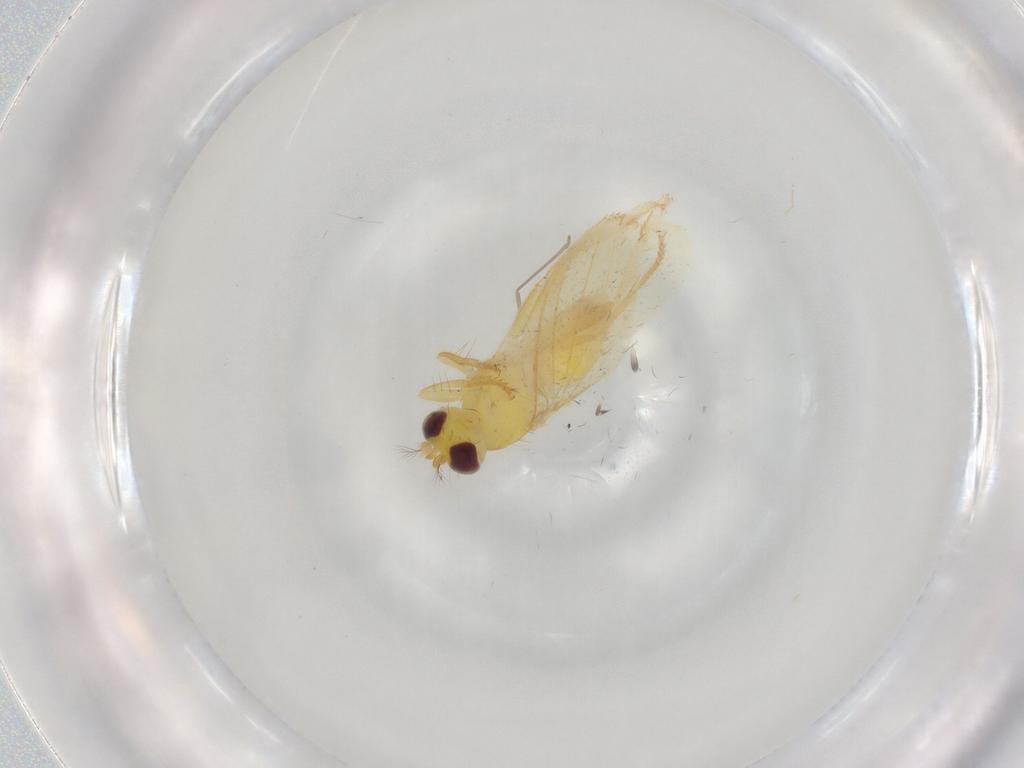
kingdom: Animalia
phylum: Arthropoda
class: Insecta
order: Diptera
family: Periscelididae
